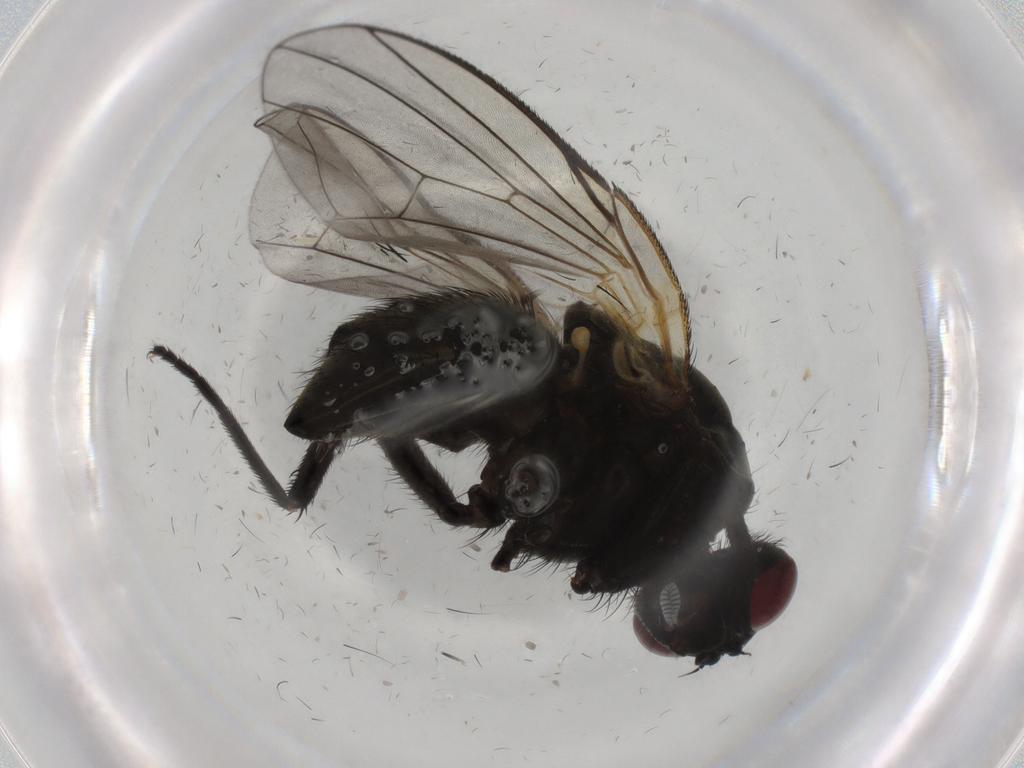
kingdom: Animalia
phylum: Arthropoda
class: Insecta
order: Diptera
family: Muscidae
